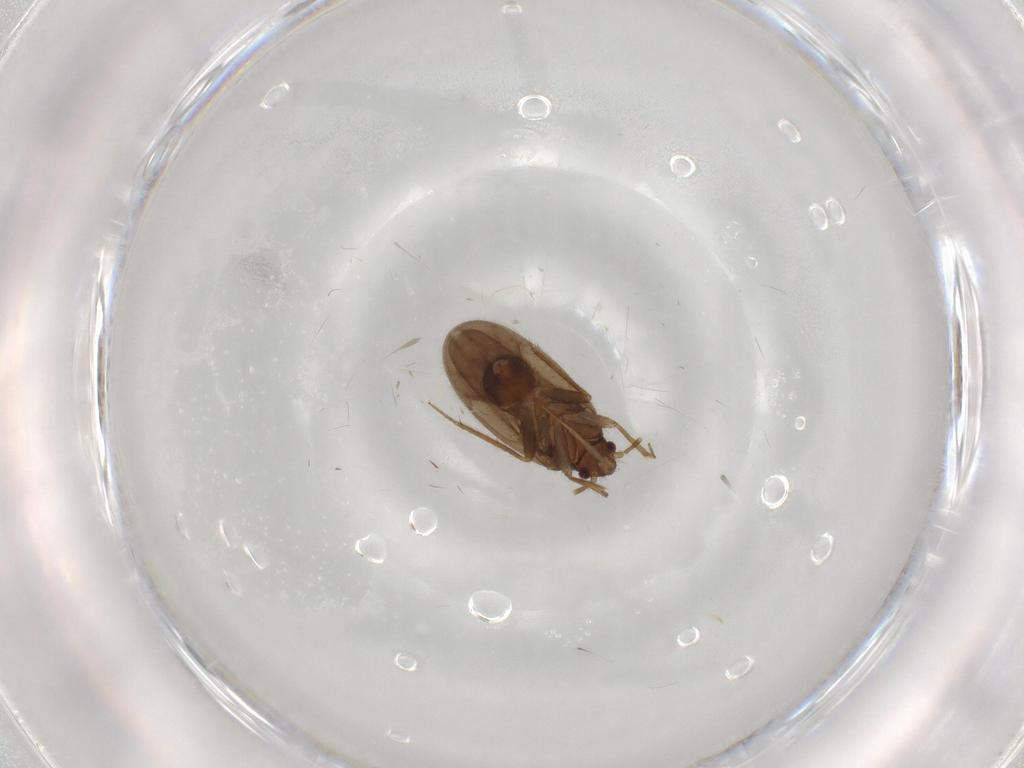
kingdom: Animalia
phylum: Arthropoda
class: Insecta
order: Hemiptera
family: Ceratocombidae
